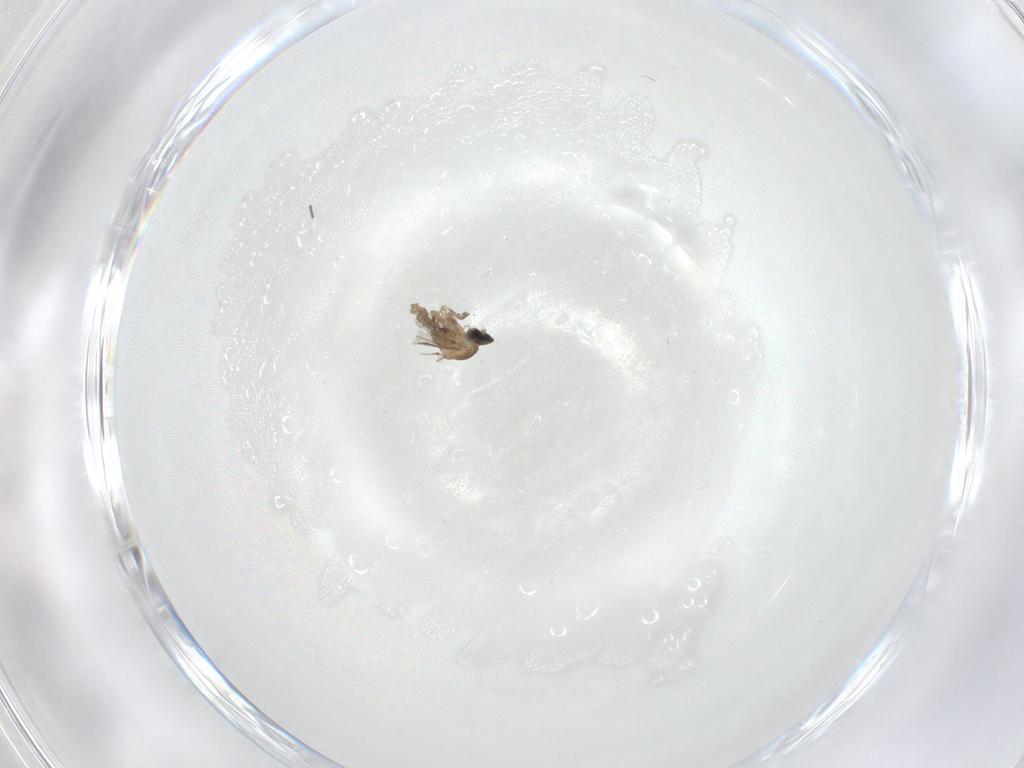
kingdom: Animalia
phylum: Arthropoda
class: Insecta
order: Diptera
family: Cecidomyiidae
